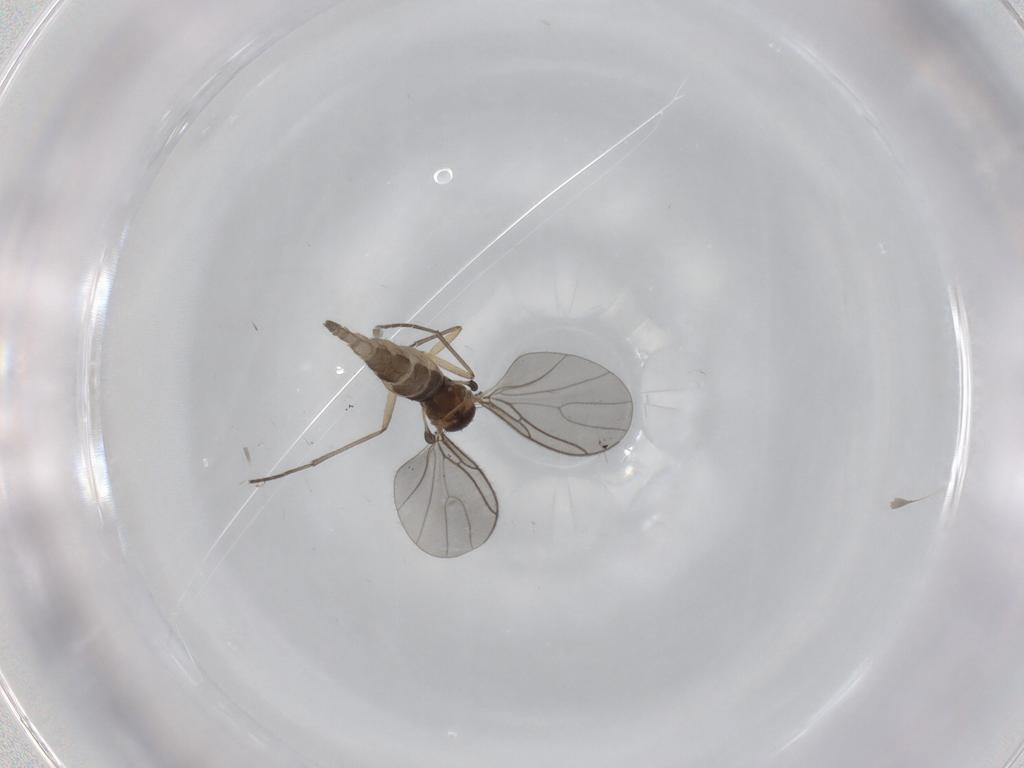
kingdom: Animalia
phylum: Arthropoda
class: Insecta
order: Diptera
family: Sciaridae
